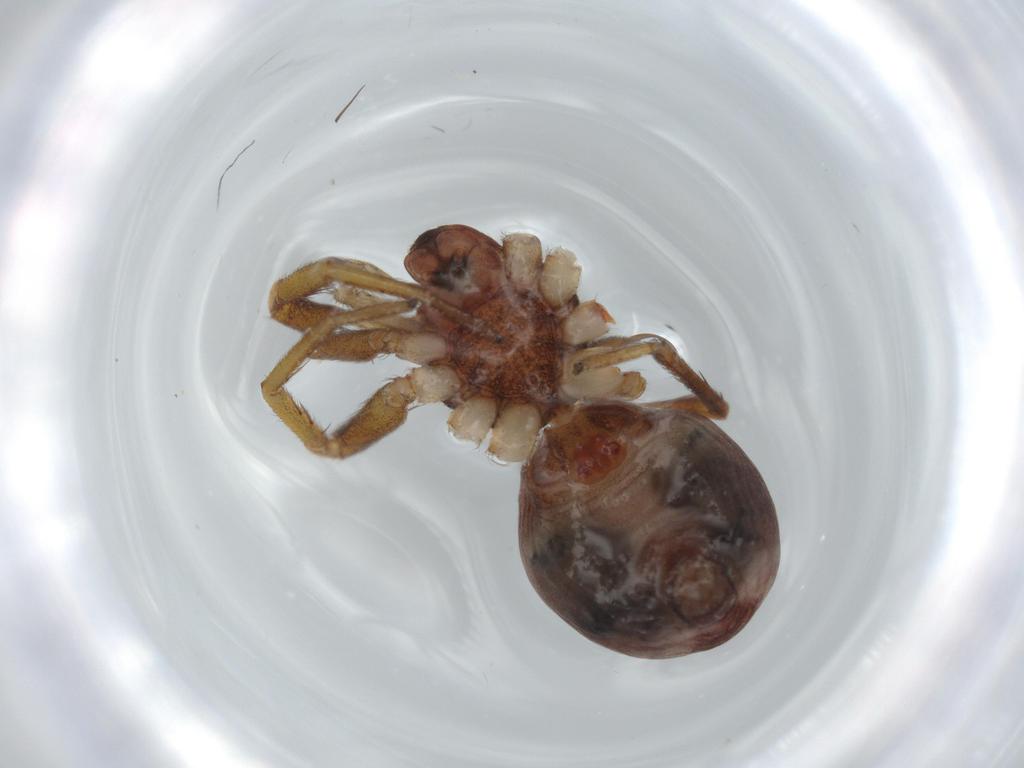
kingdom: Animalia
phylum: Arthropoda
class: Arachnida
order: Araneae
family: Corinnidae
